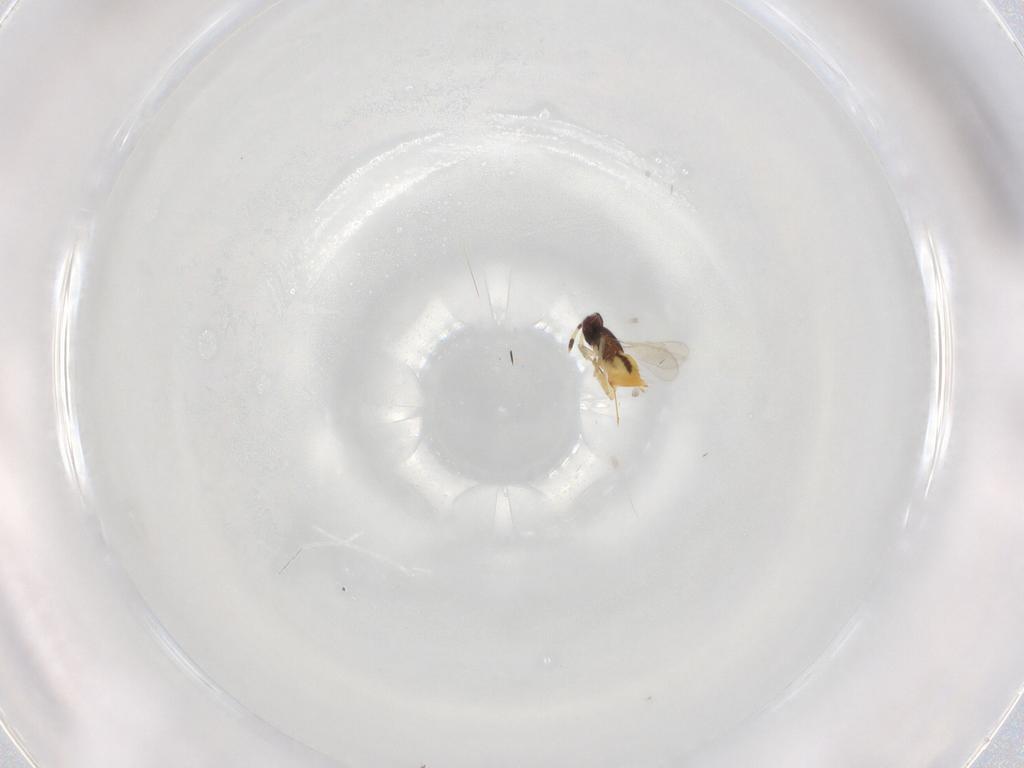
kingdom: Animalia
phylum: Arthropoda
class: Insecta
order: Hymenoptera
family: Aphelinidae
